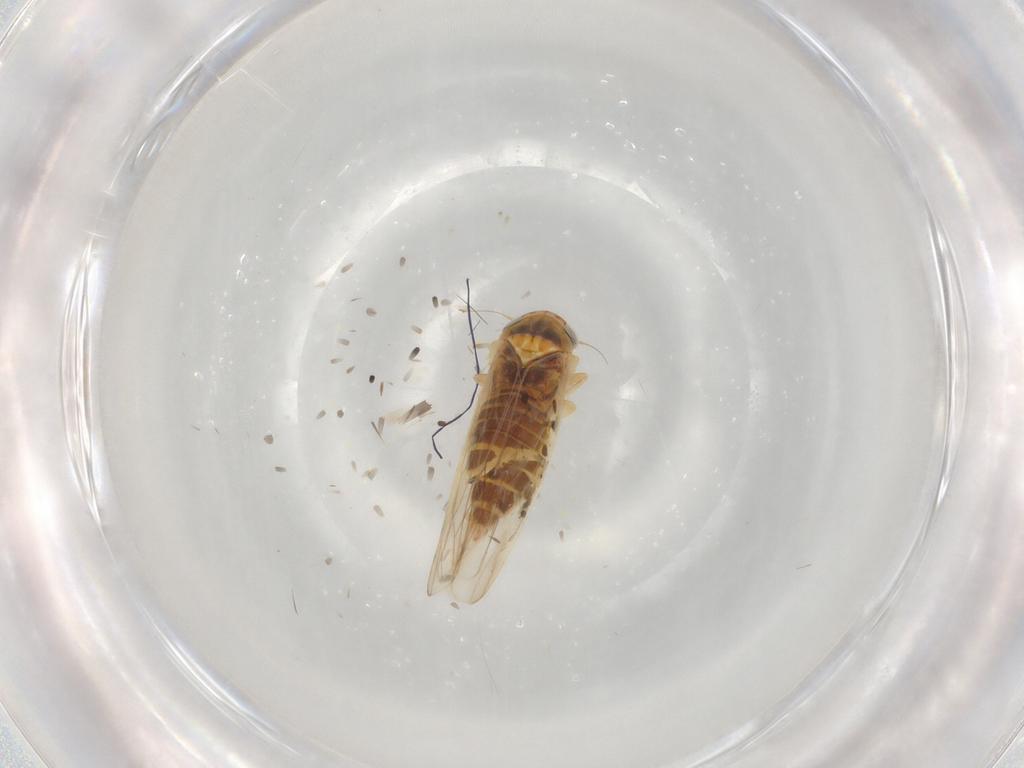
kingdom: Animalia
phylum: Arthropoda
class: Insecta
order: Hemiptera
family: Cicadellidae
